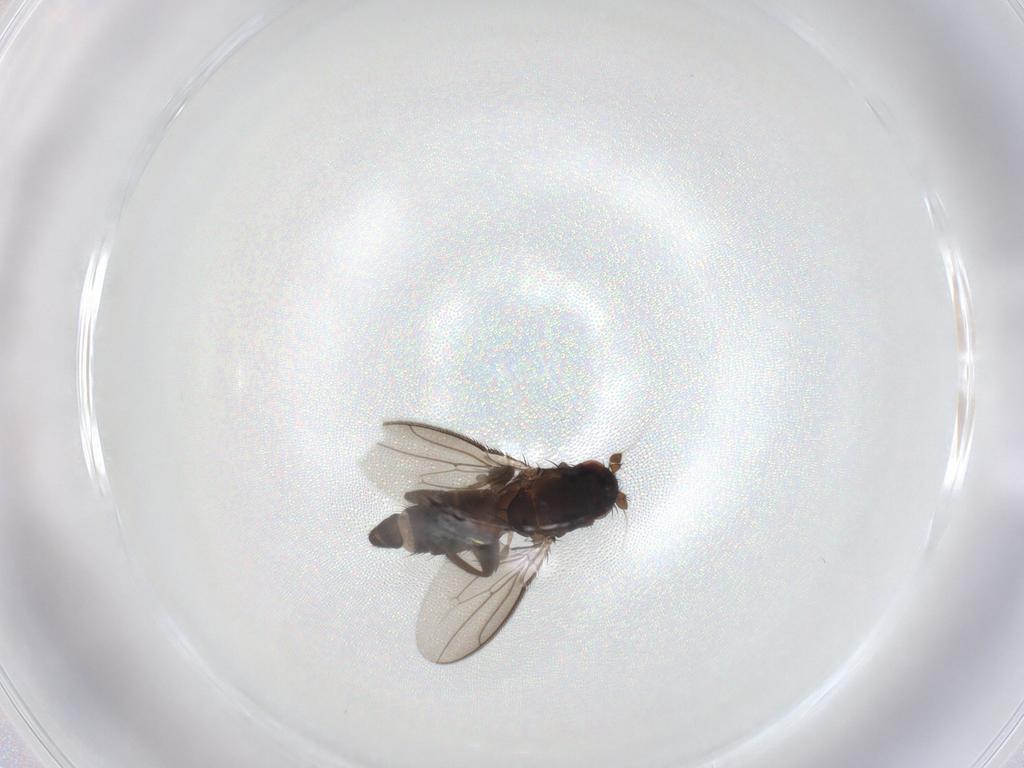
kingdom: Animalia
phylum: Arthropoda
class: Insecta
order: Diptera
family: Sphaeroceridae
